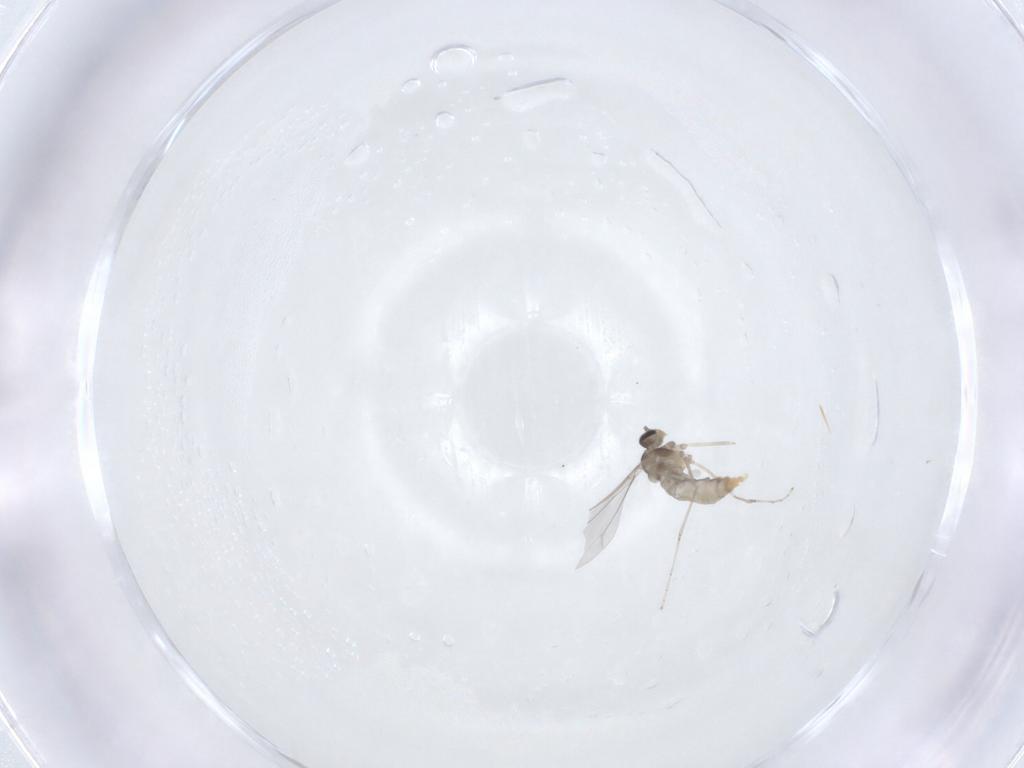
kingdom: Animalia
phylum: Arthropoda
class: Insecta
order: Diptera
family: Cecidomyiidae
